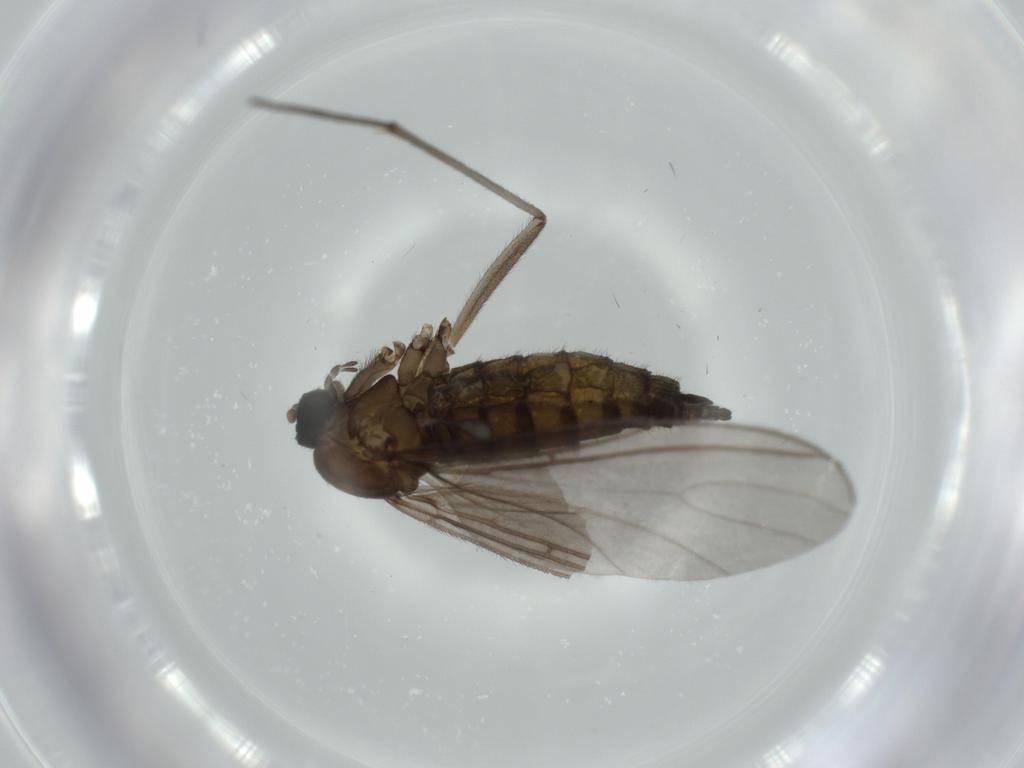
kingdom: Animalia
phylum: Arthropoda
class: Insecta
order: Diptera
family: Sciaridae
